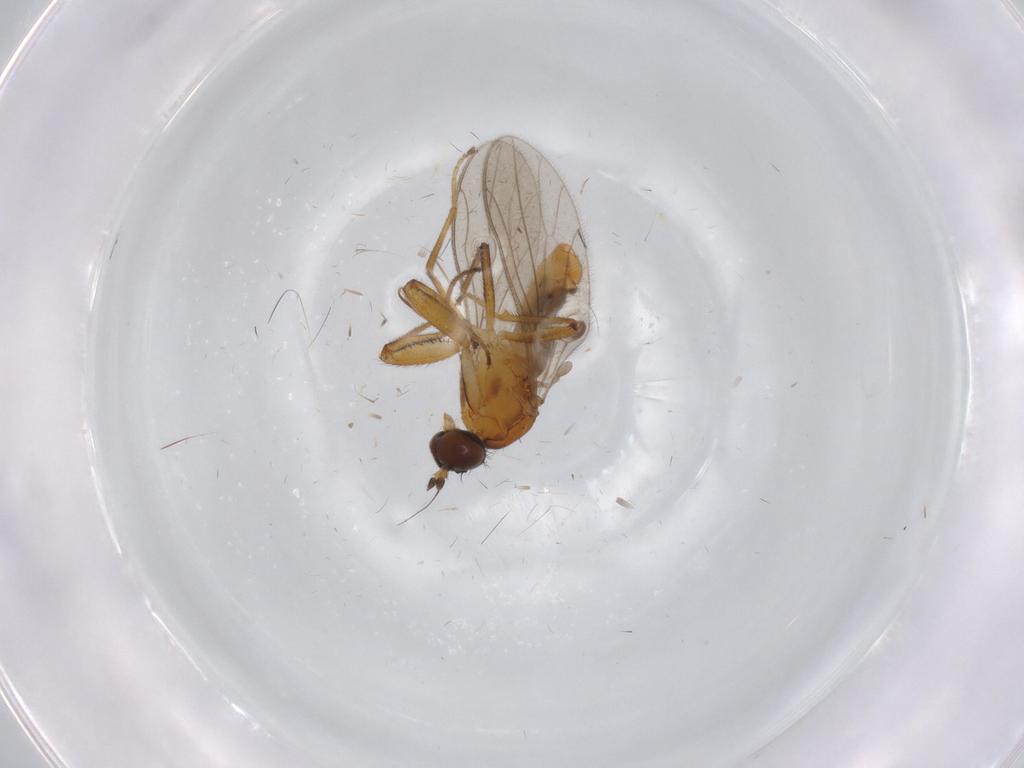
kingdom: Animalia
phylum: Arthropoda
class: Insecta
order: Diptera
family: Empididae
